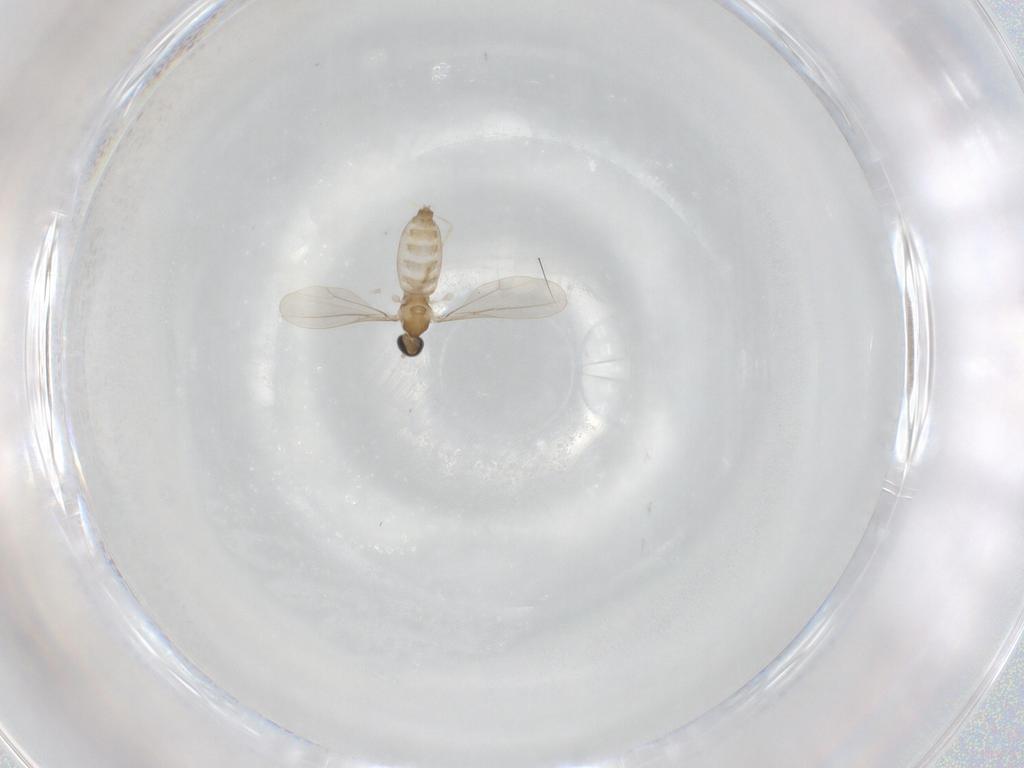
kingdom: Animalia
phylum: Arthropoda
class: Insecta
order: Diptera
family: Cecidomyiidae
